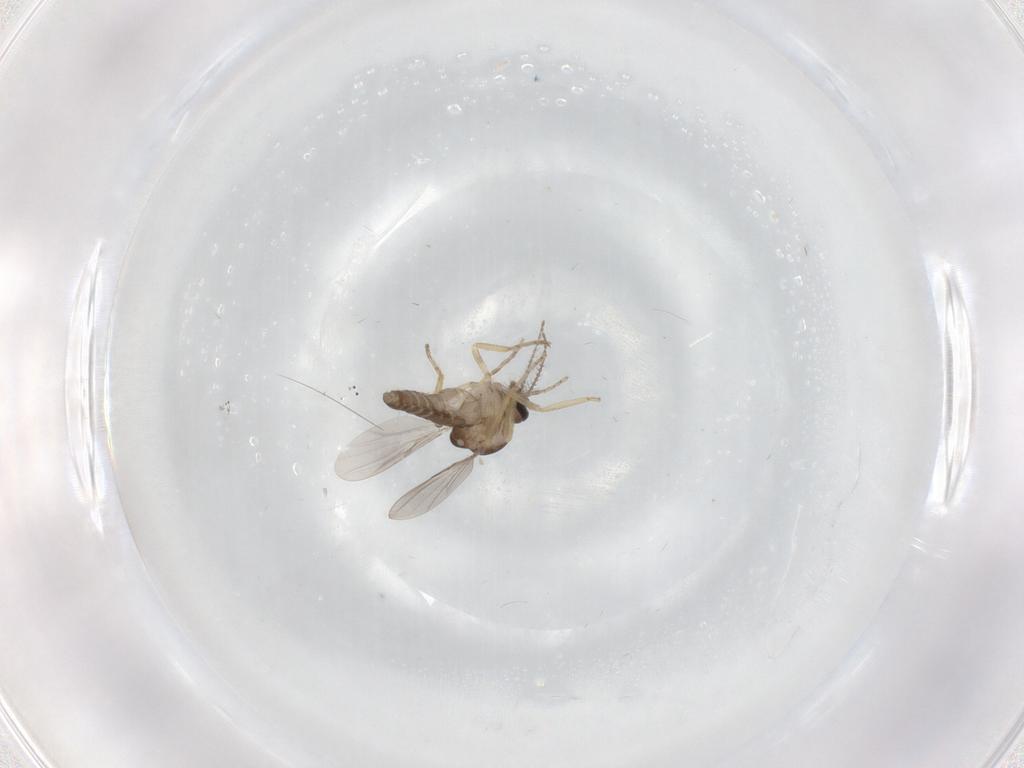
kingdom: Animalia
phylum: Arthropoda
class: Insecta
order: Diptera
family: Ceratopogonidae
